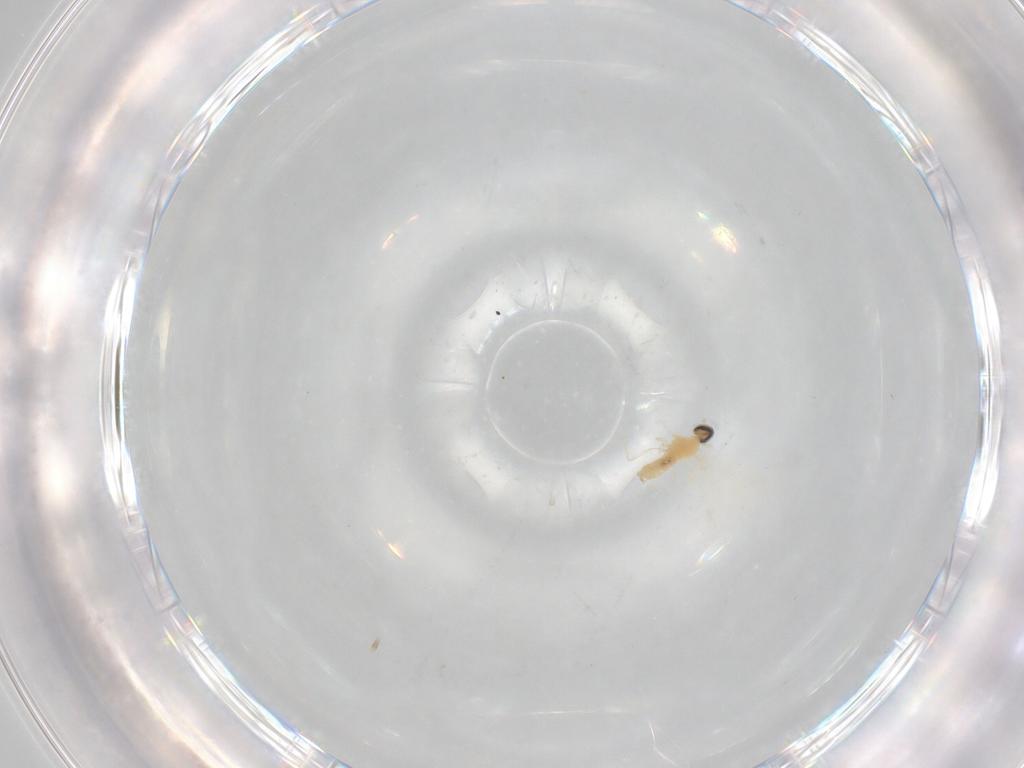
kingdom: Animalia
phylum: Arthropoda
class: Insecta
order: Diptera
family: Cecidomyiidae
